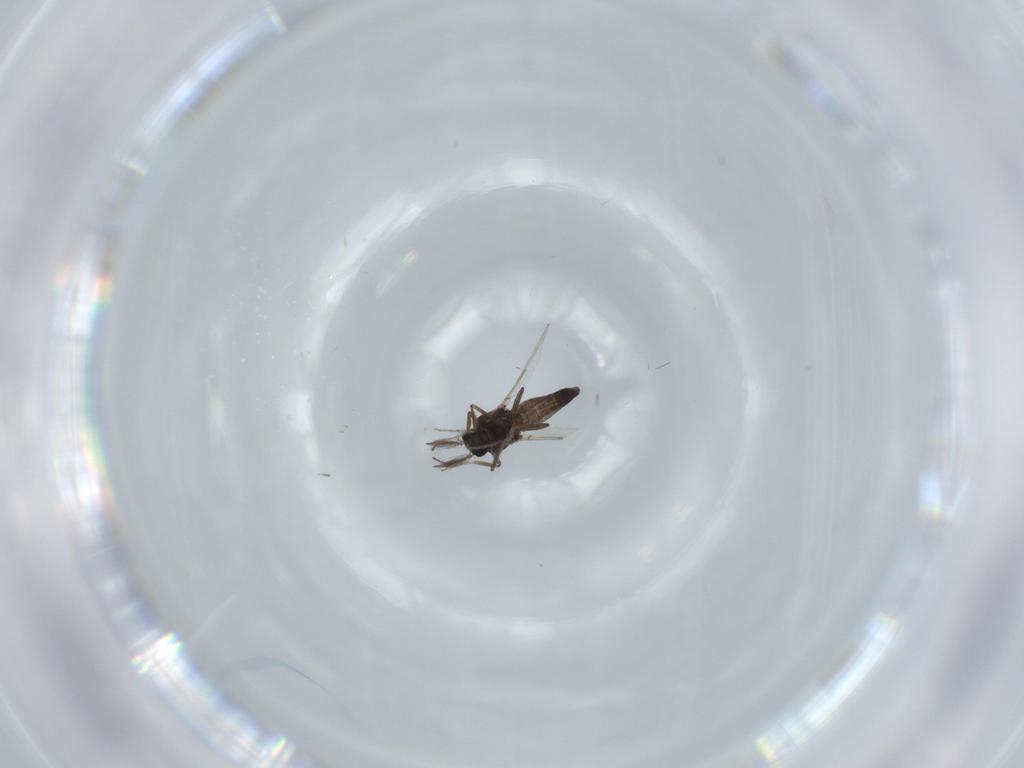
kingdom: Animalia
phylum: Arthropoda
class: Insecta
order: Diptera
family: Ceratopogonidae
